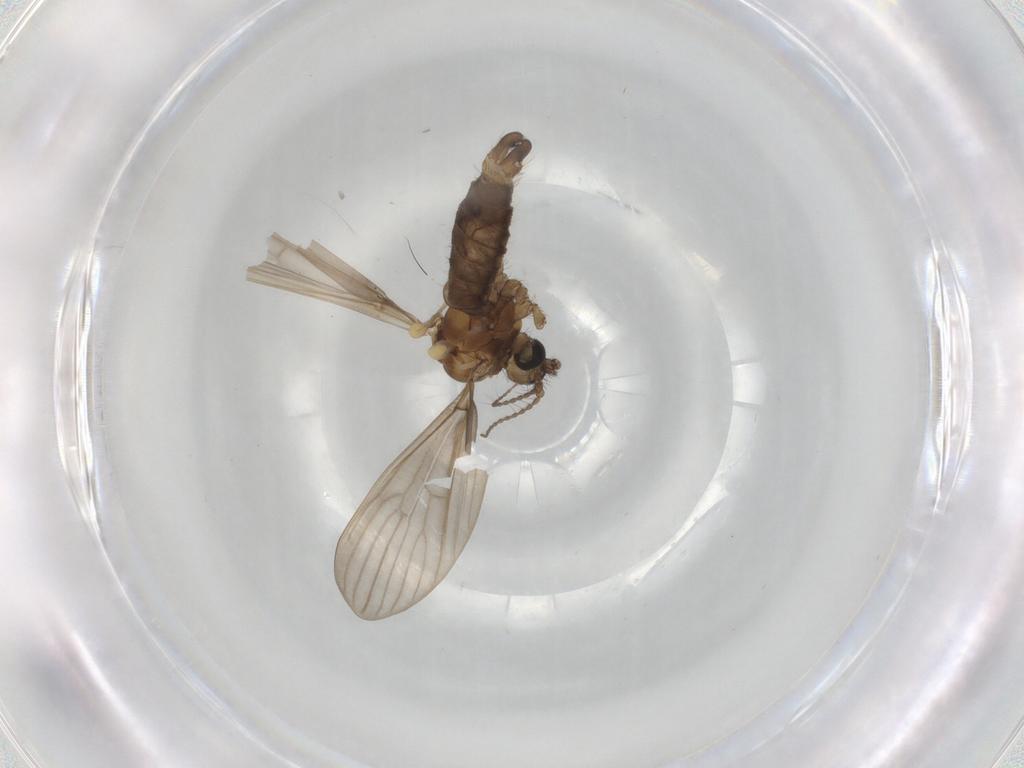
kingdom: Animalia
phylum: Arthropoda
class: Insecta
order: Diptera
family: Limoniidae
